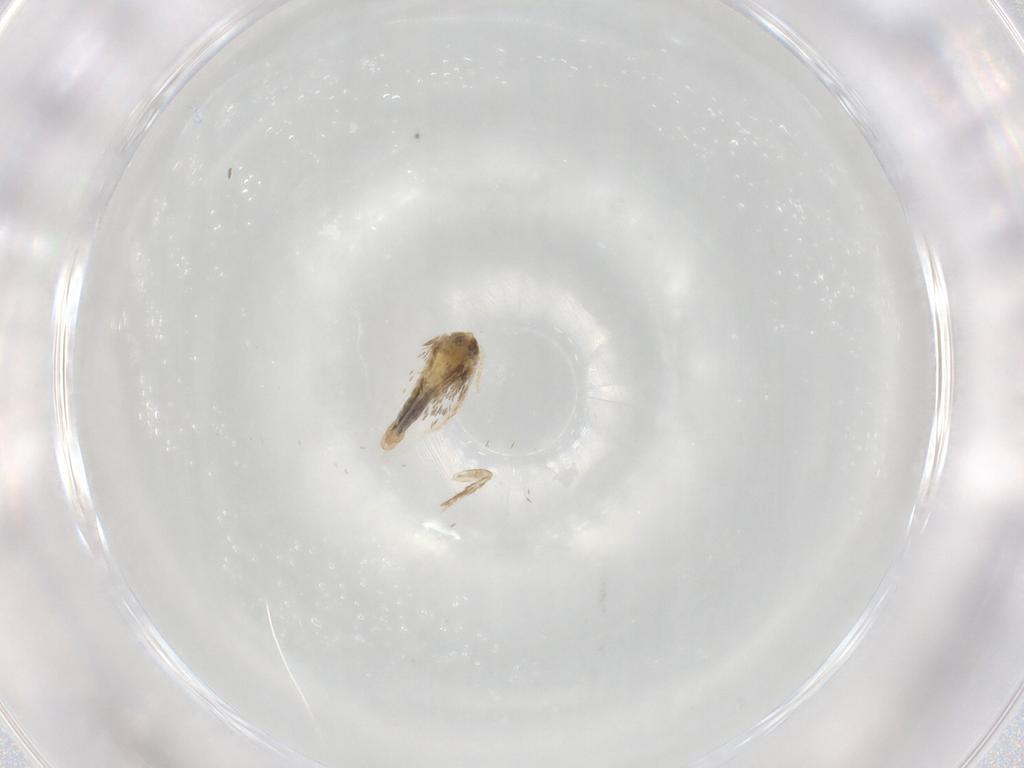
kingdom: Animalia
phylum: Arthropoda
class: Insecta
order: Lepidoptera
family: Nepticulidae
